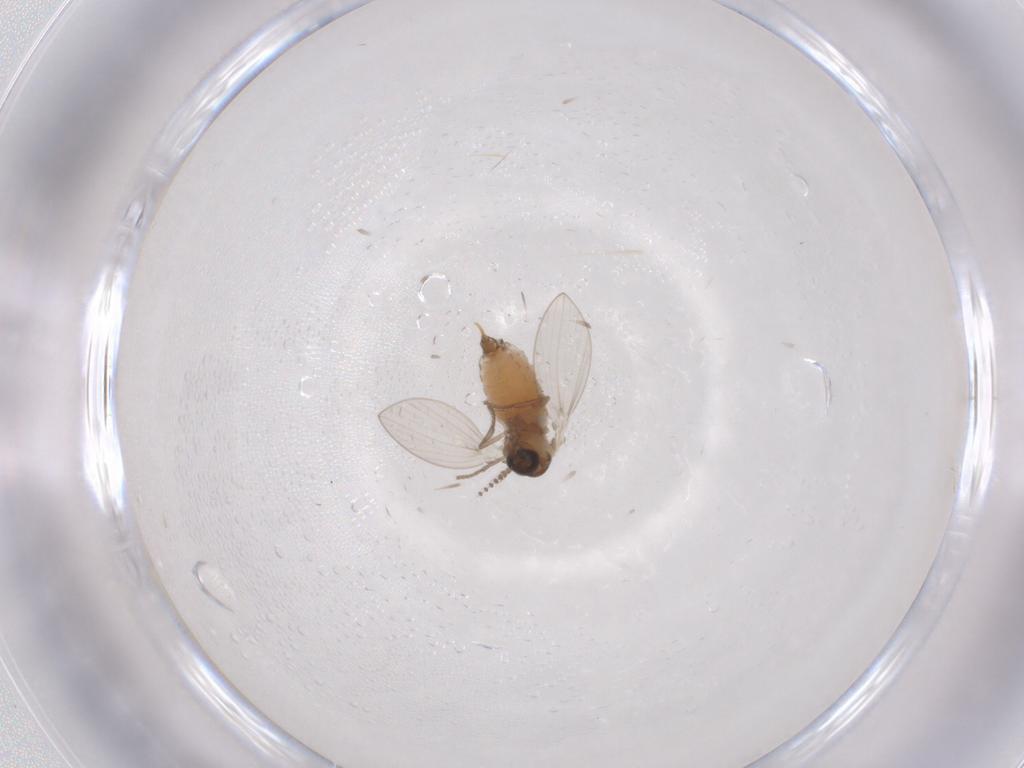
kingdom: Animalia
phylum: Arthropoda
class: Insecta
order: Diptera
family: Psychodidae
